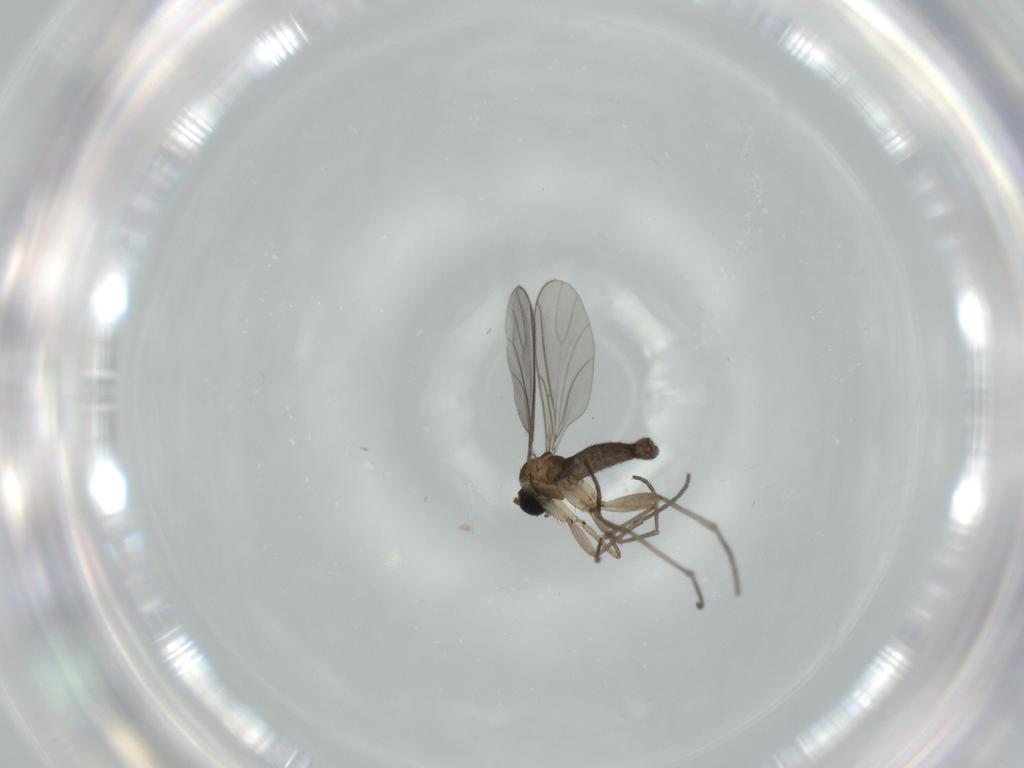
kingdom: Animalia
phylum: Arthropoda
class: Insecta
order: Diptera
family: Sciaridae
